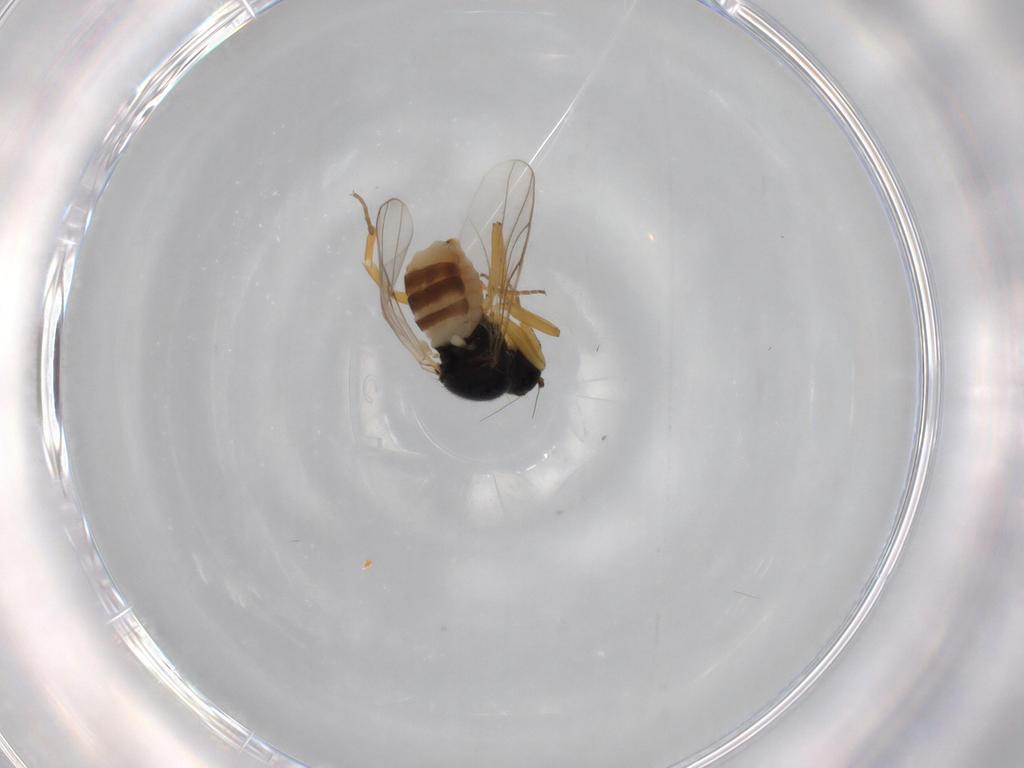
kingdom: Animalia
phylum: Arthropoda
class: Insecta
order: Diptera
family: Hybotidae
